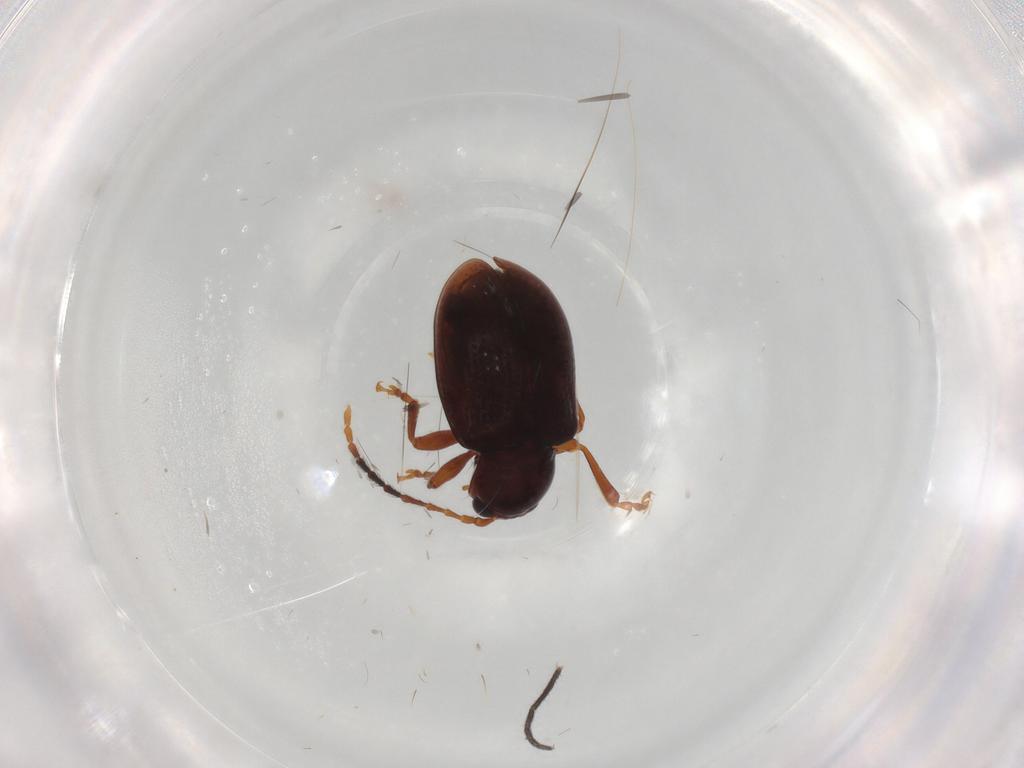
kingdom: Animalia
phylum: Arthropoda
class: Insecta
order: Coleoptera
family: Chrysomelidae
